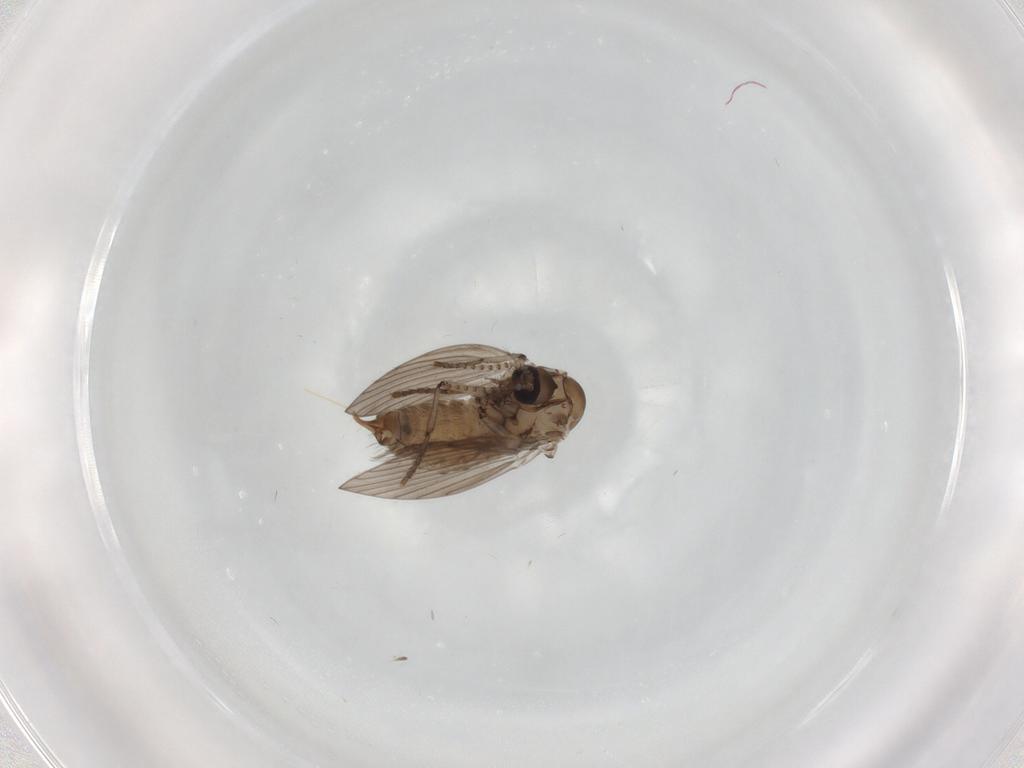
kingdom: Animalia
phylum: Arthropoda
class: Insecta
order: Diptera
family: Psychodidae
